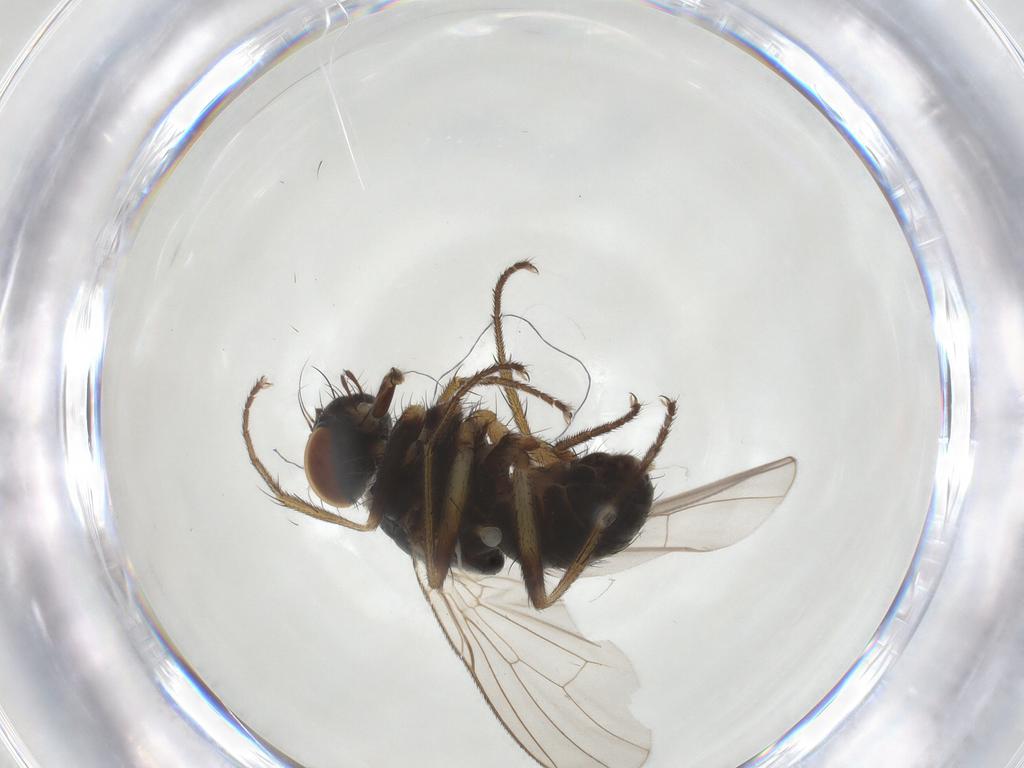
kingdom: Animalia
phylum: Arthropoda
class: Insecta
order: Diptera
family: Muscidae
